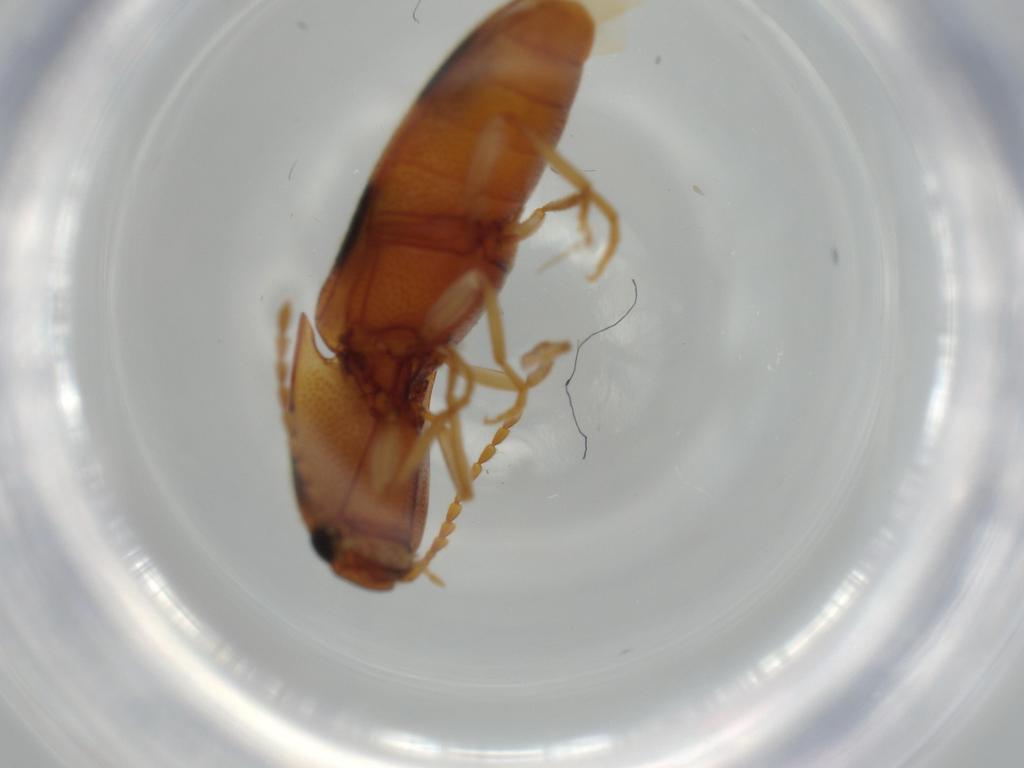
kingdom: Animalia
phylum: Arthropoda
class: Insecta
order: Coleoptera
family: Elateridae
